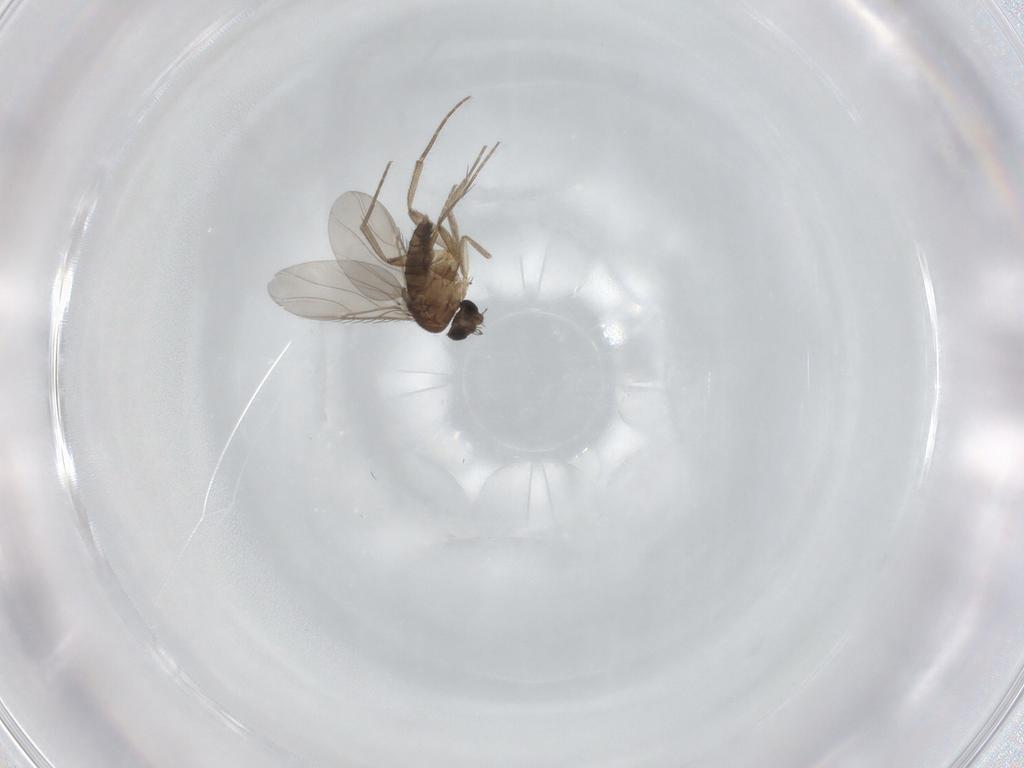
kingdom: Animalia
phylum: Arthropoda
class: Insecta
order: Diptera
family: Phoridae
